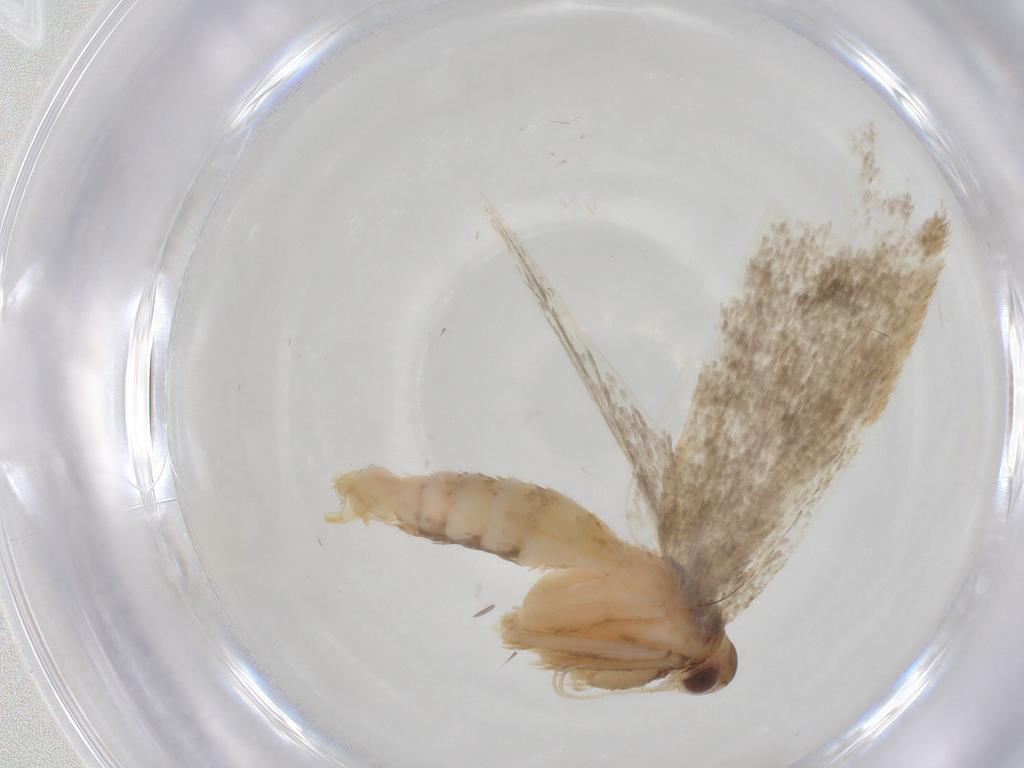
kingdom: Animalia
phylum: Arthropoda
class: Insecta
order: Lepidoptera
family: Lecithoceridae
